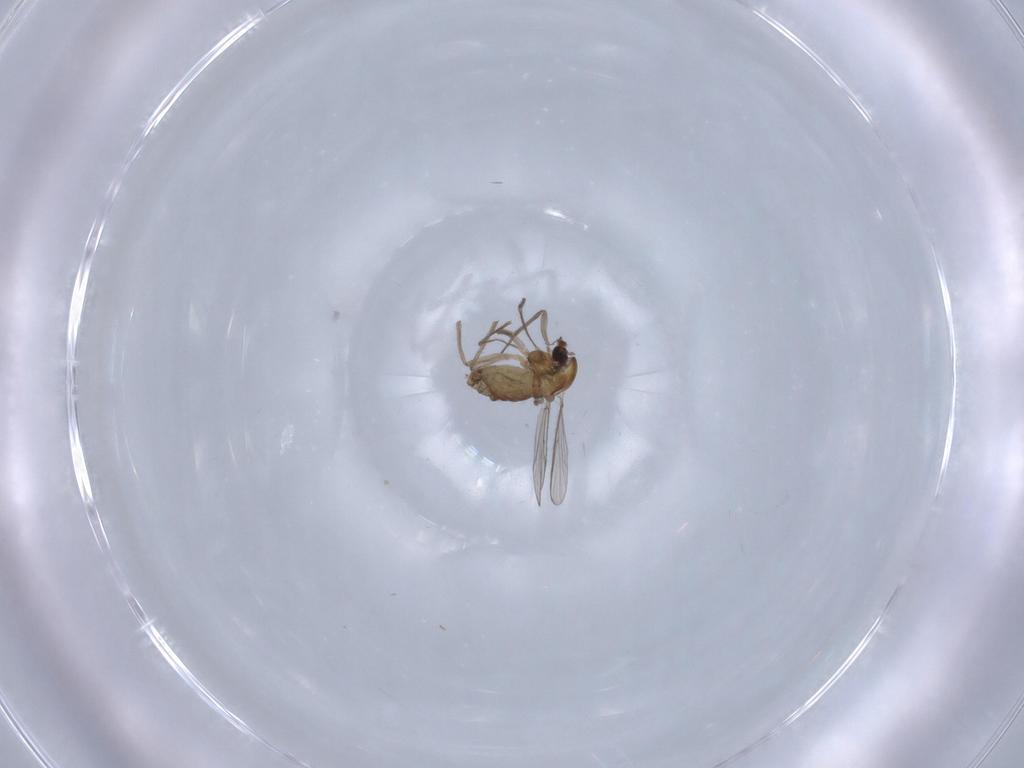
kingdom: Animalia
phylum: Arthropoda
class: Insecta
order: Diptera
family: Chironomidae
